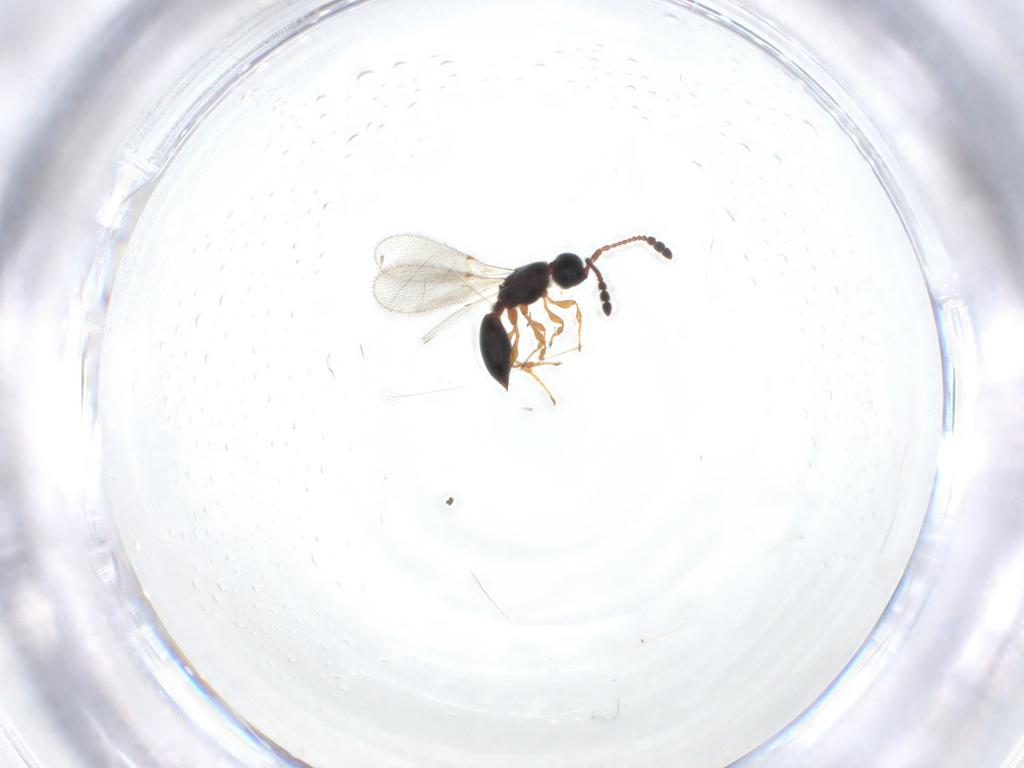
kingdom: Animalia
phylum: Arthropoda
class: Insecta
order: Hymenoptera
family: Diapriidae
